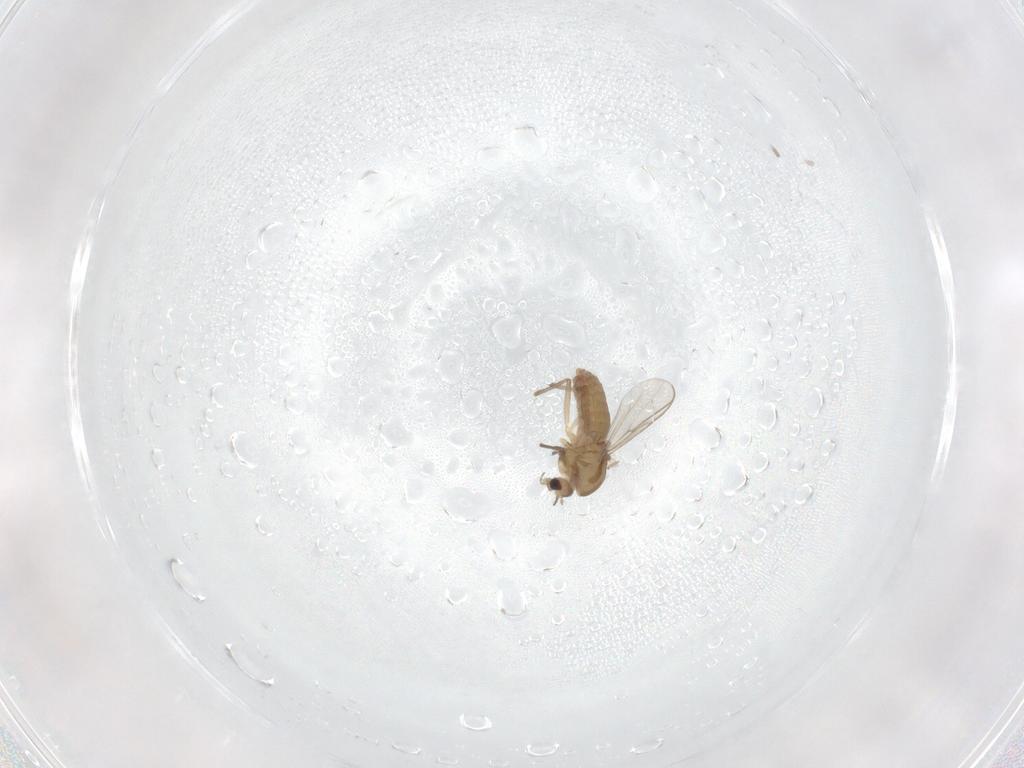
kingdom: Animalia
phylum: Arthropoda
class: Insecta
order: Diptera
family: Chironomidae
